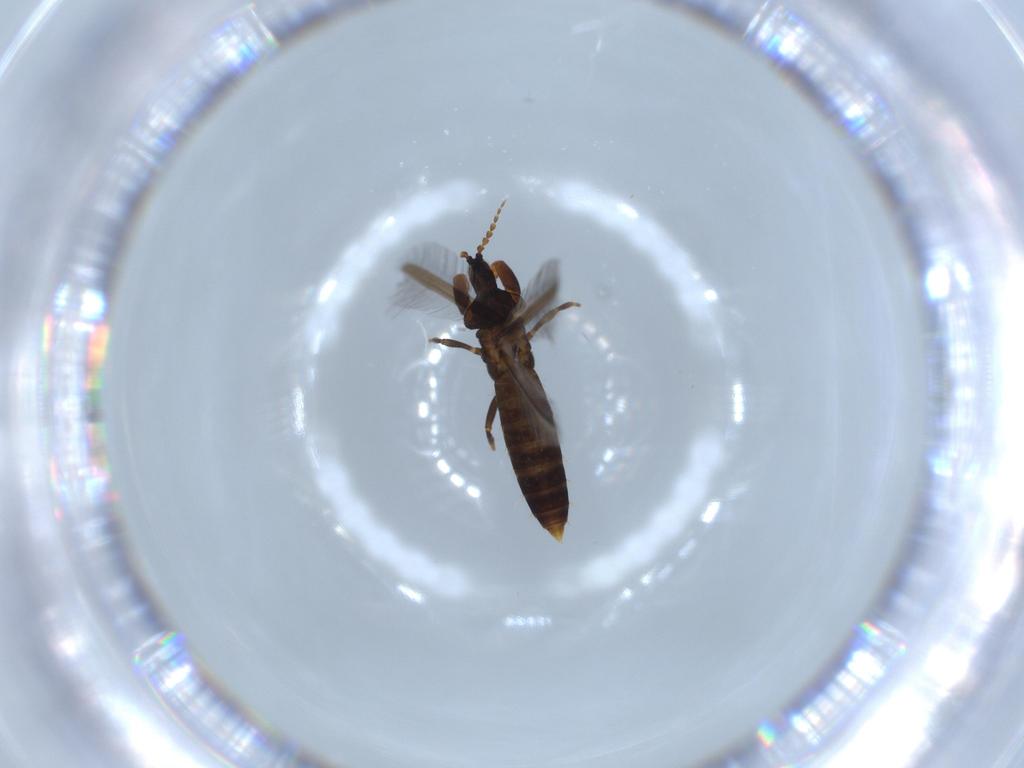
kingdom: Animalia
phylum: Arthropoda
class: Insecta
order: Thysanoptera
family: Phlaeothripidae
